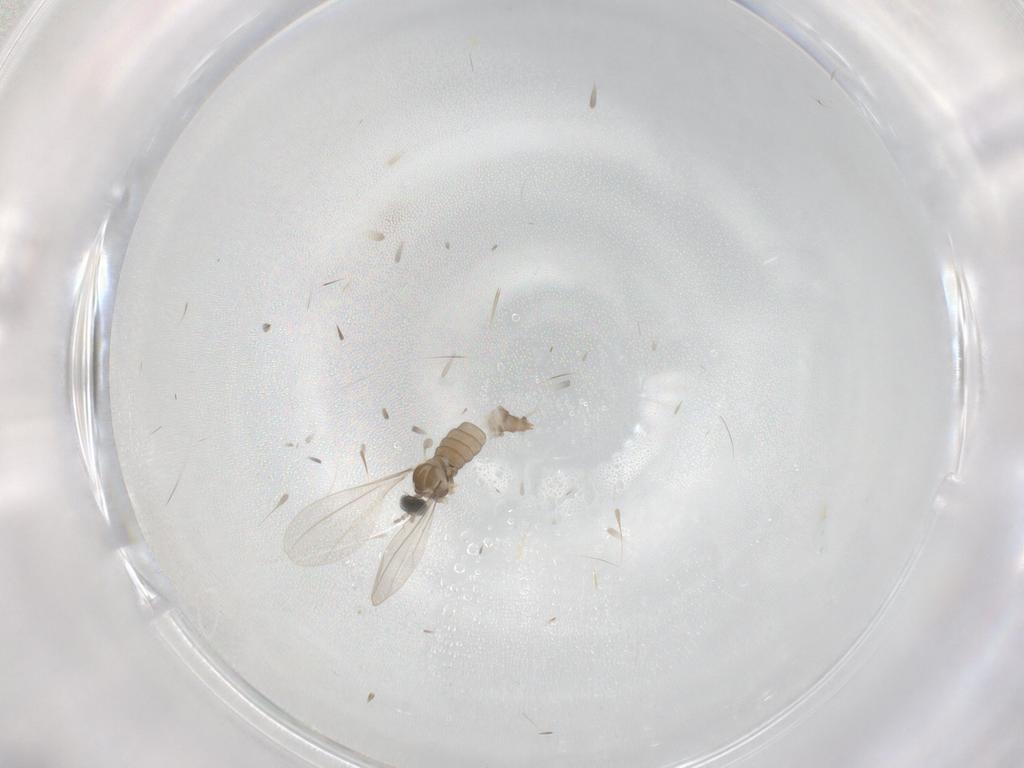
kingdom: Animalia
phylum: Arthropoda
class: Insecta
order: Diptera
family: Cecidomyiidae
